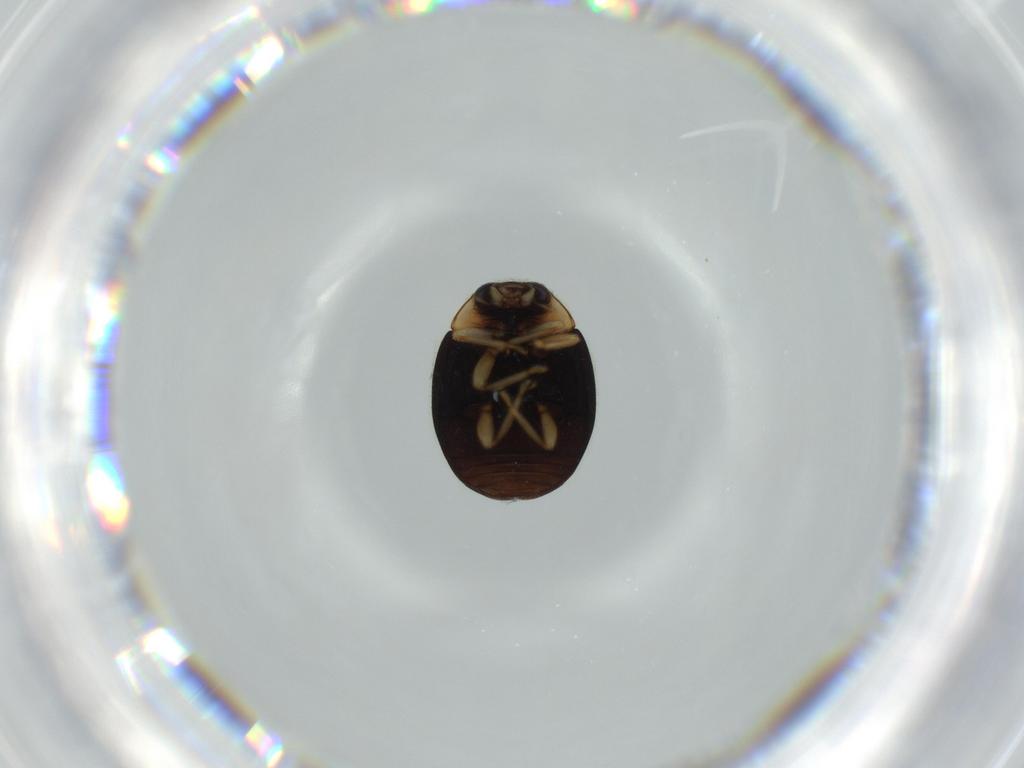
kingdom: Animalia
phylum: Arthropoda
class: Insecta
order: Coleoptera
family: Coccinellidae
